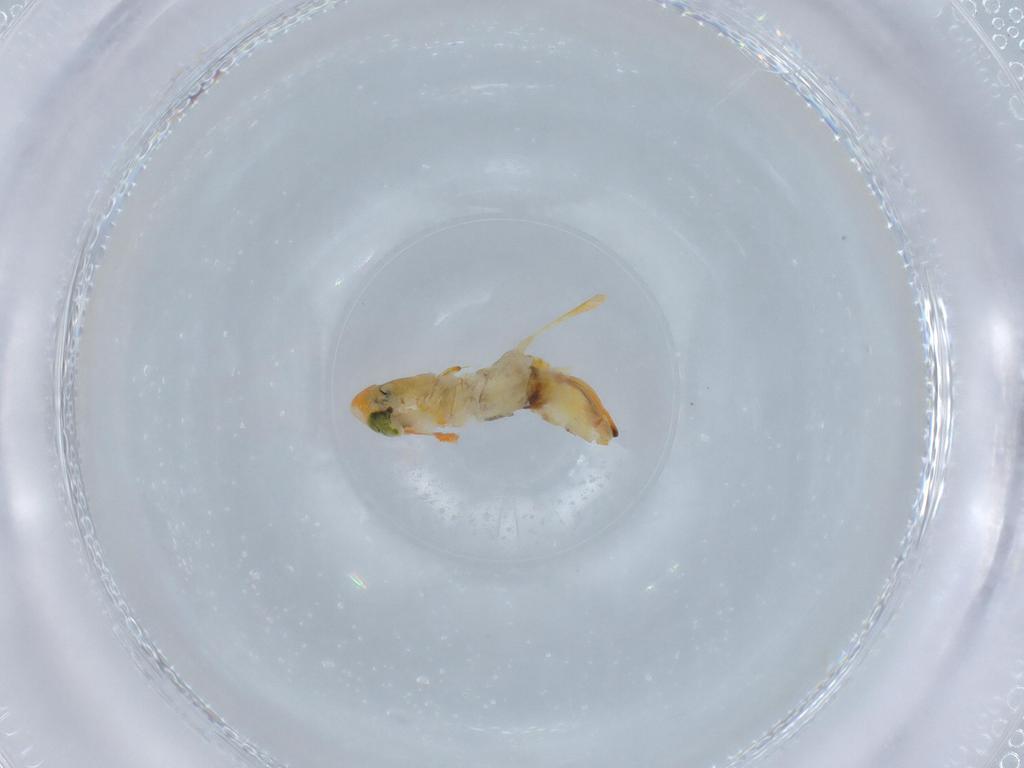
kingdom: Animalia
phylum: Arthropoda
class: Insecta
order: Hemiptera
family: Cicadellidae
